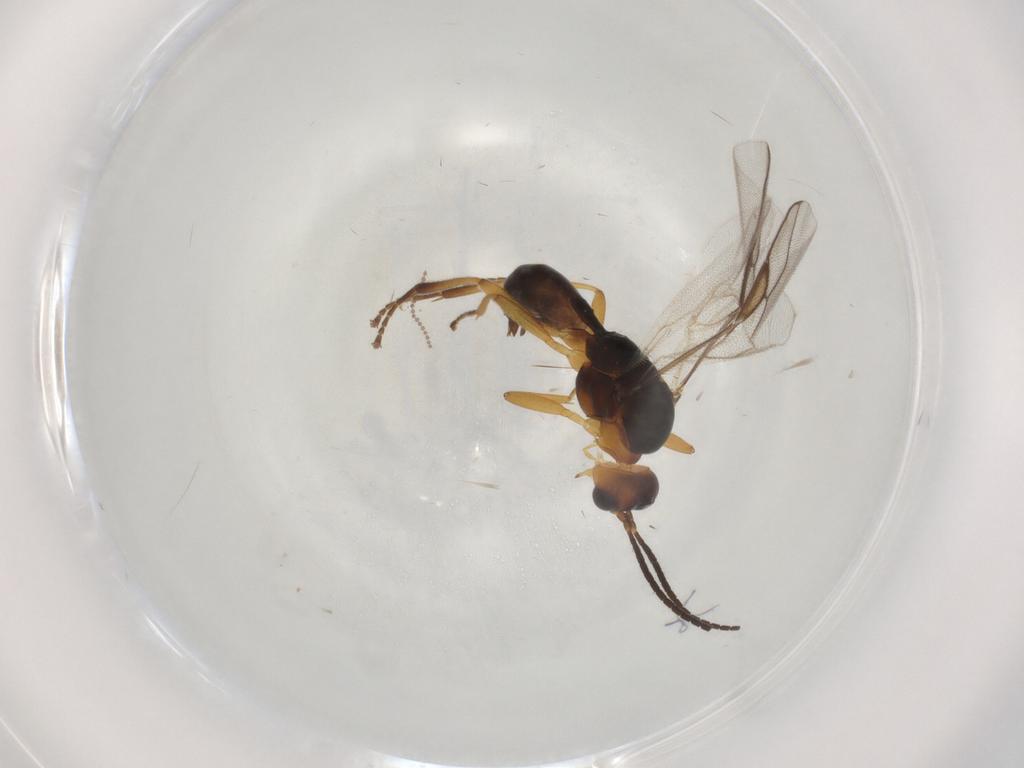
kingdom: Animalia
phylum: Arthropoda
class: Insecta
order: Hymenoptera
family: Braconidae
